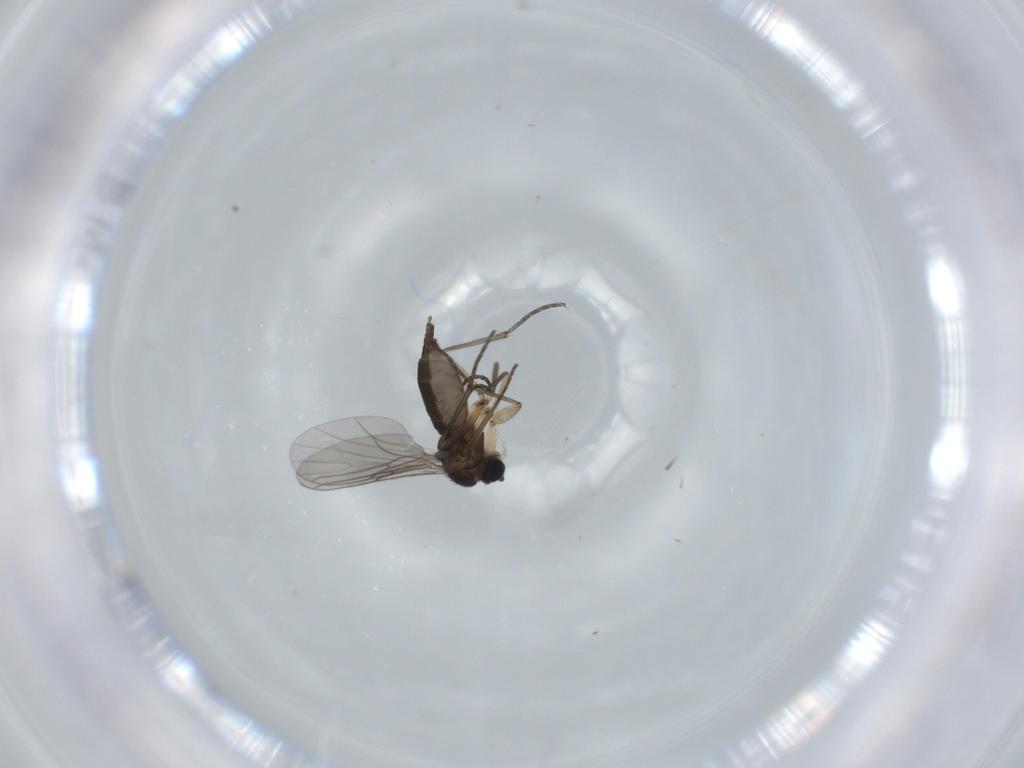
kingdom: Animalia
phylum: Arthropoda
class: Insecta
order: Diptera
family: Sciaridae
